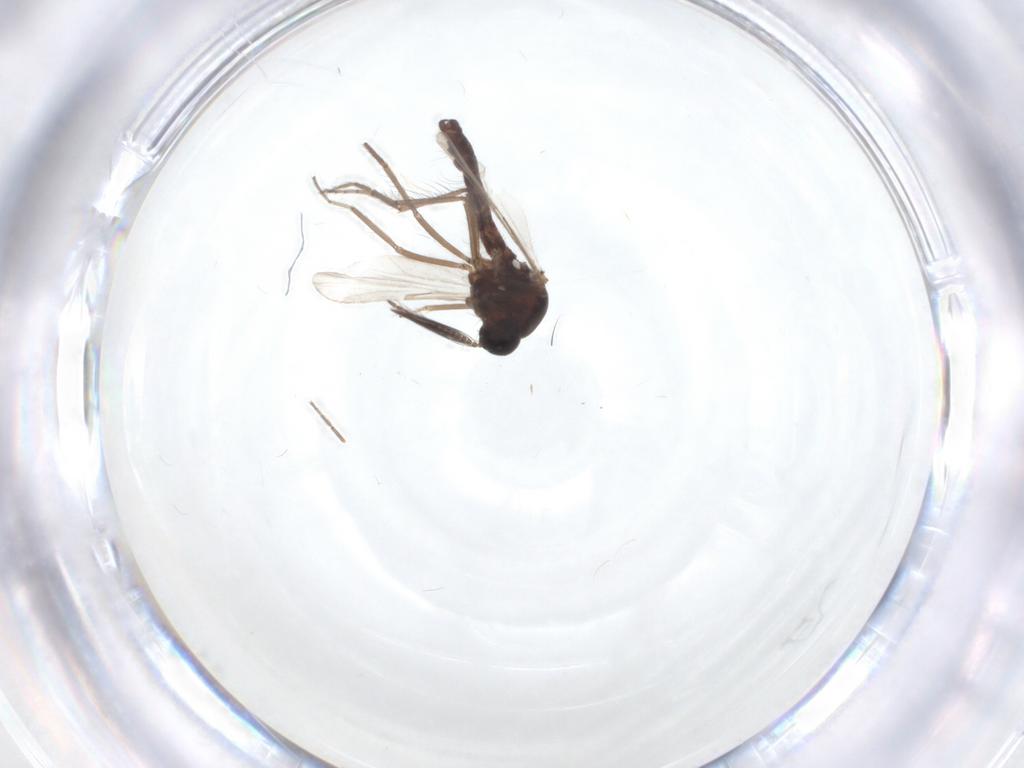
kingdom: Animalia
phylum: Arthropoda
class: Insecta
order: Diptera
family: Ceratopogonidae
